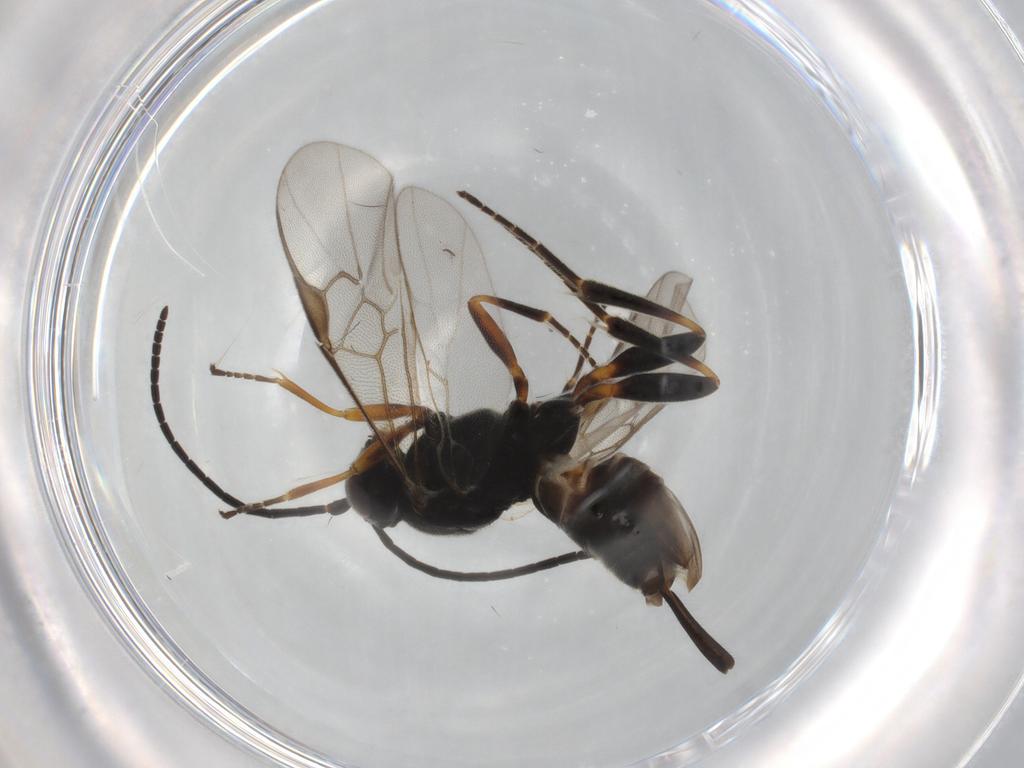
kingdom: Animalia
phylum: Arthropoda
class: Insecta
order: Hymenoptera
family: Braconidae
